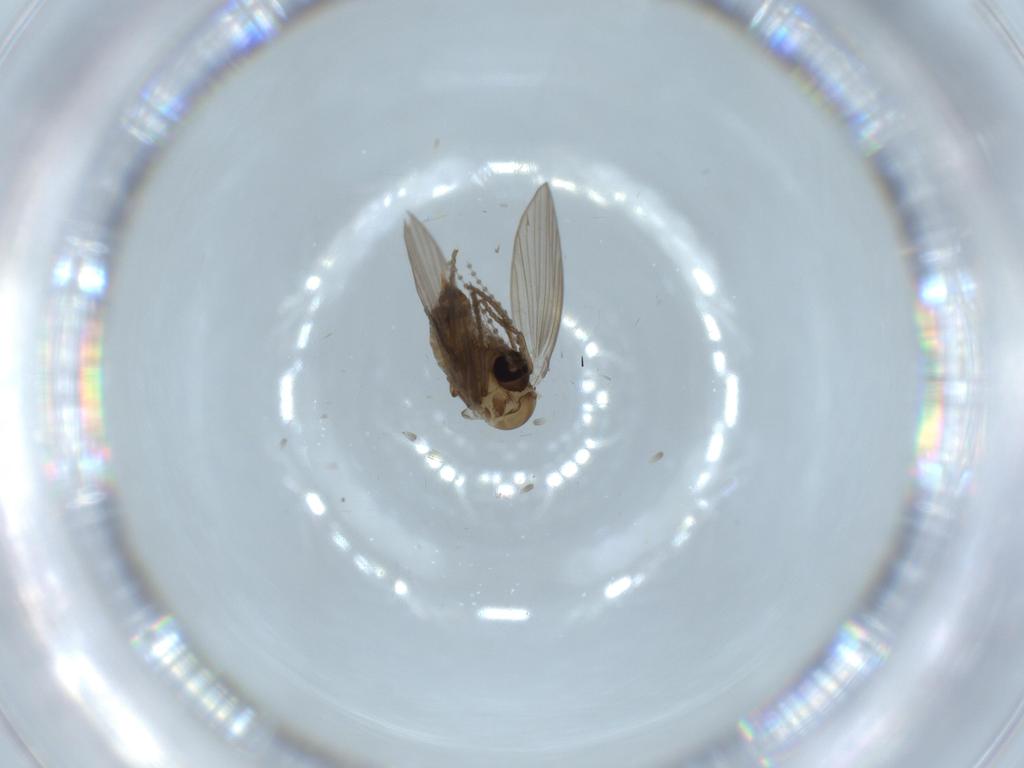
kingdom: Animalia
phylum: Arthropoda
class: Insecta
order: Diptera
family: Psychodidae
